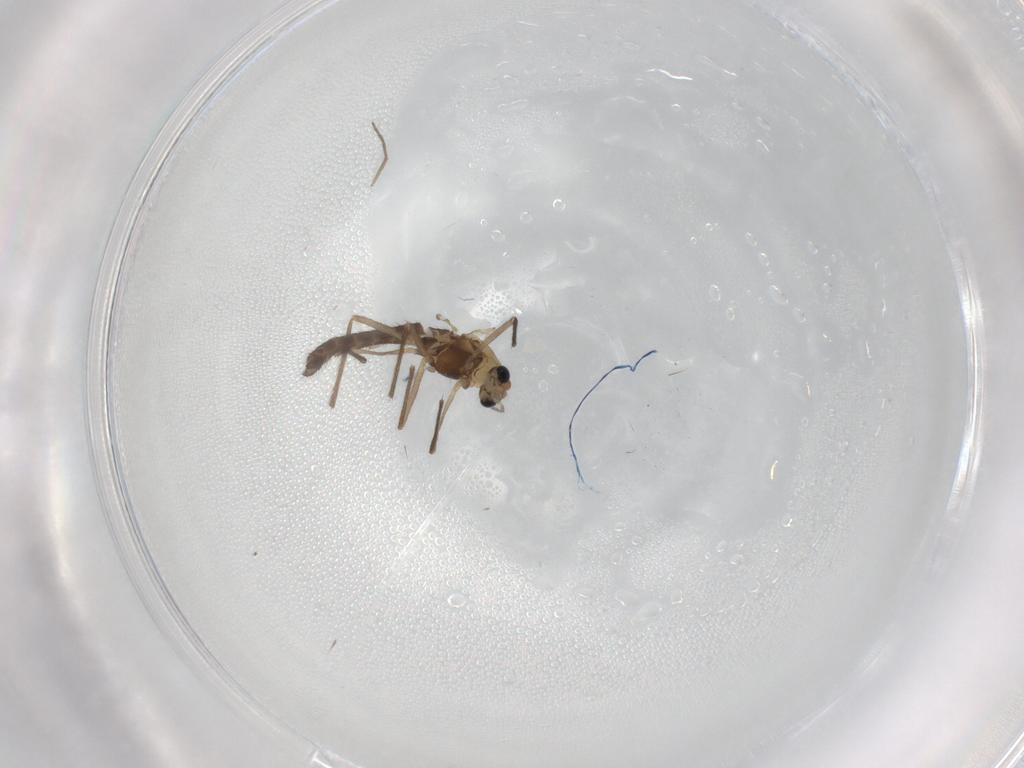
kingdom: Animalia
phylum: Arthropoda
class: Insecta
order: Diptera
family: Chironomidae
